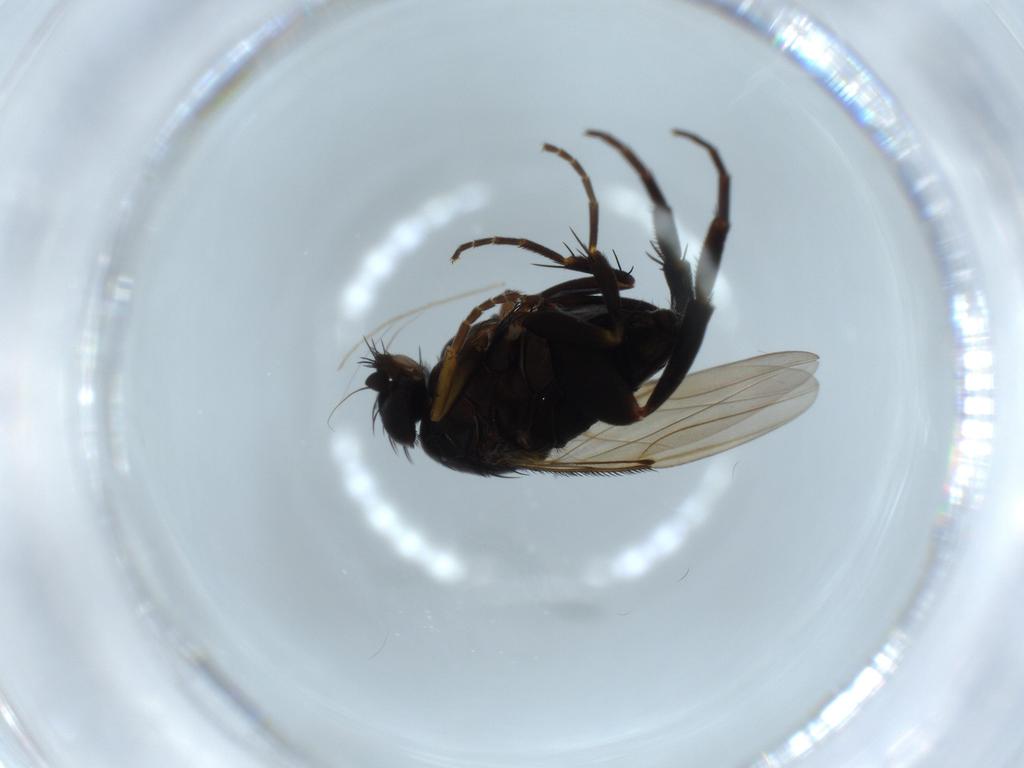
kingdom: Animalia
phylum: Arthropoda
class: Insecta
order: Diptera
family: Phoridae
